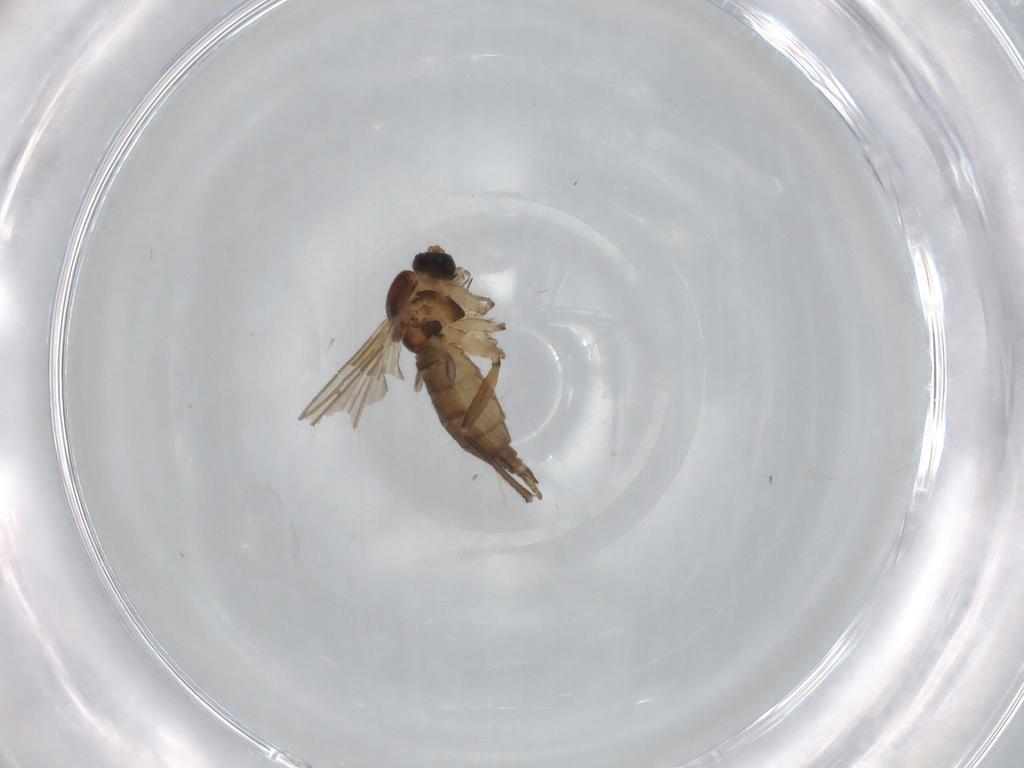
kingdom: Animalia
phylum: Arthropoda
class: Insecta
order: Diptera
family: Sciaridae
